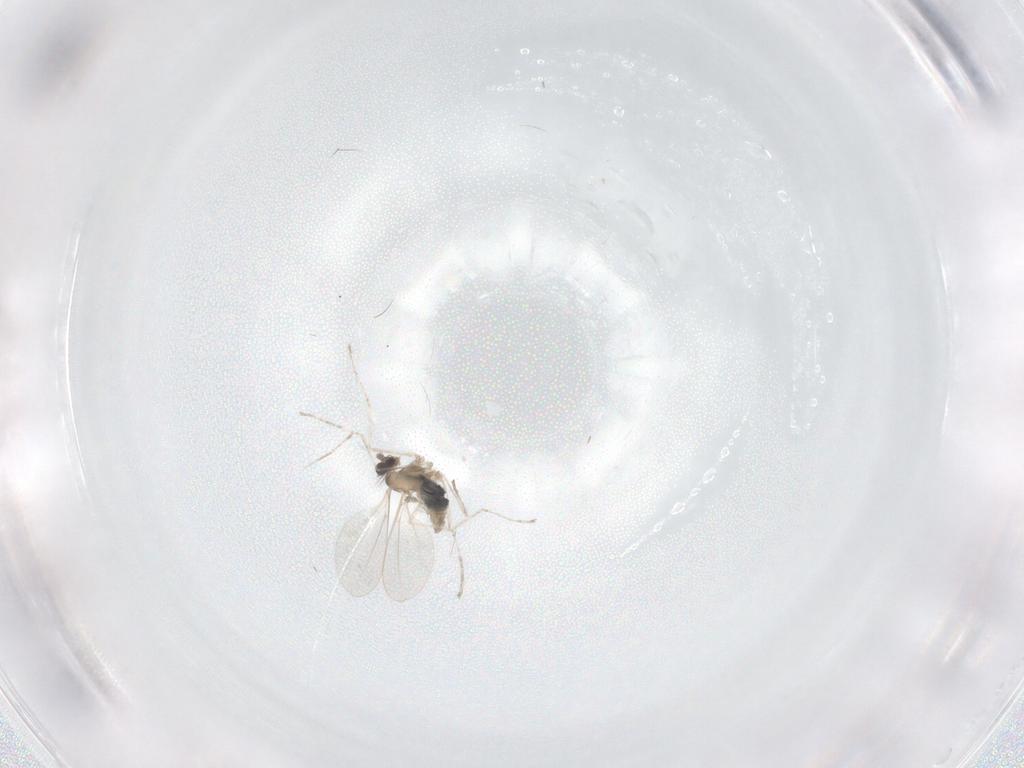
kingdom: Animalia
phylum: Arthropoda
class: Insecta
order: Diptera
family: Cecidomyiidae
